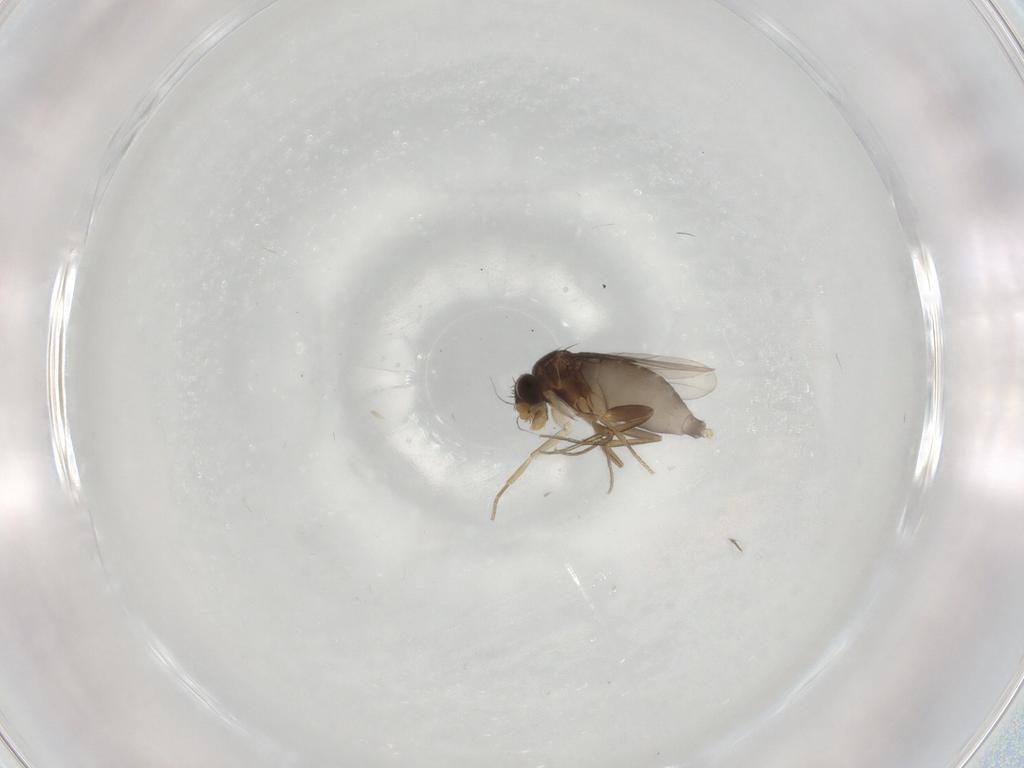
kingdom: Animalia
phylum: Arthropoda
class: Insecta
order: Diptera
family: Phoridae
